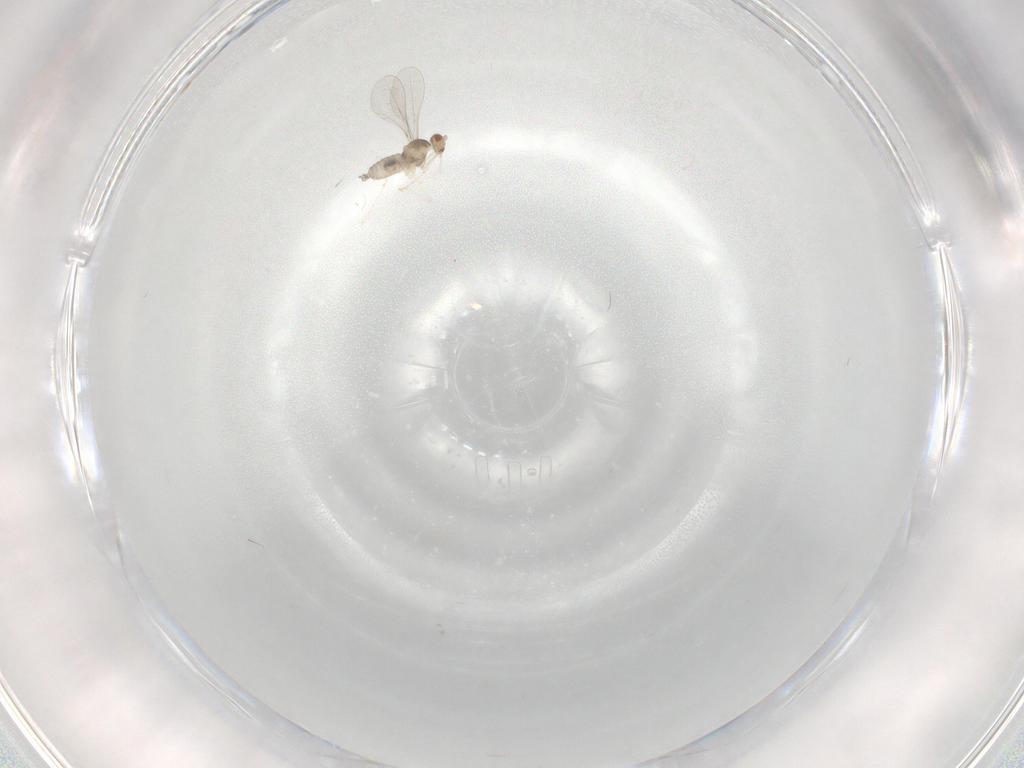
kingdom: Animalia
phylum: Arthropoda
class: Insecta
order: Diptera
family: Cecidomyiidae
